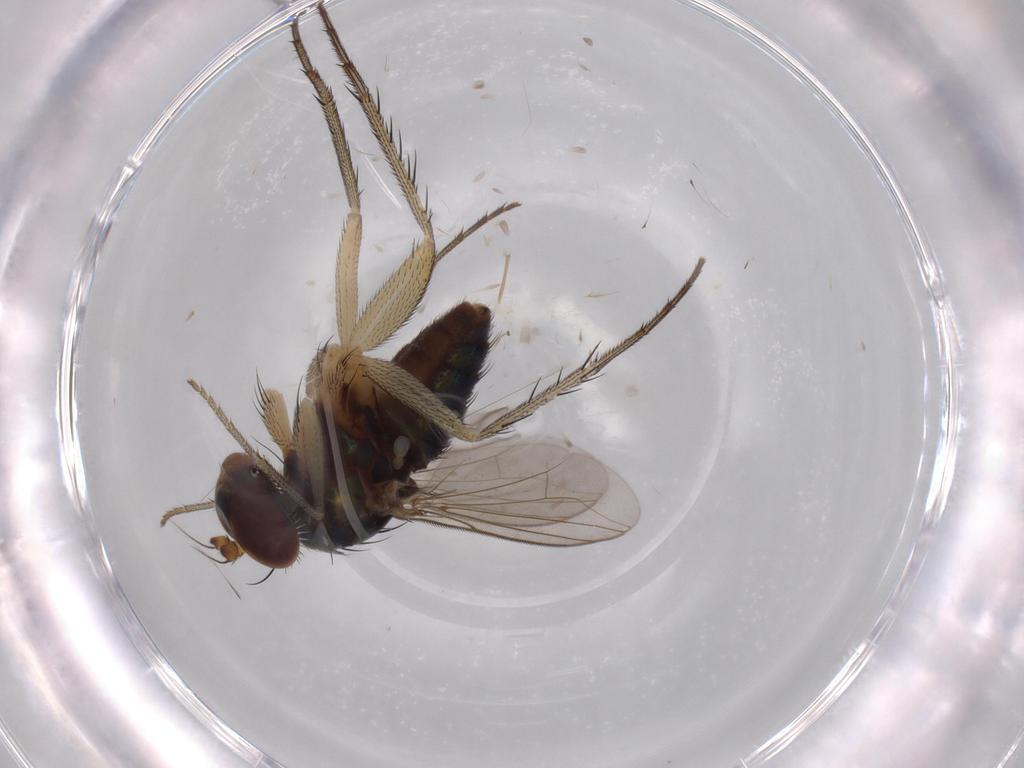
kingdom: Animalia
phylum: Arthropoda
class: Insecta
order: Diptera
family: Dolichopodidae
